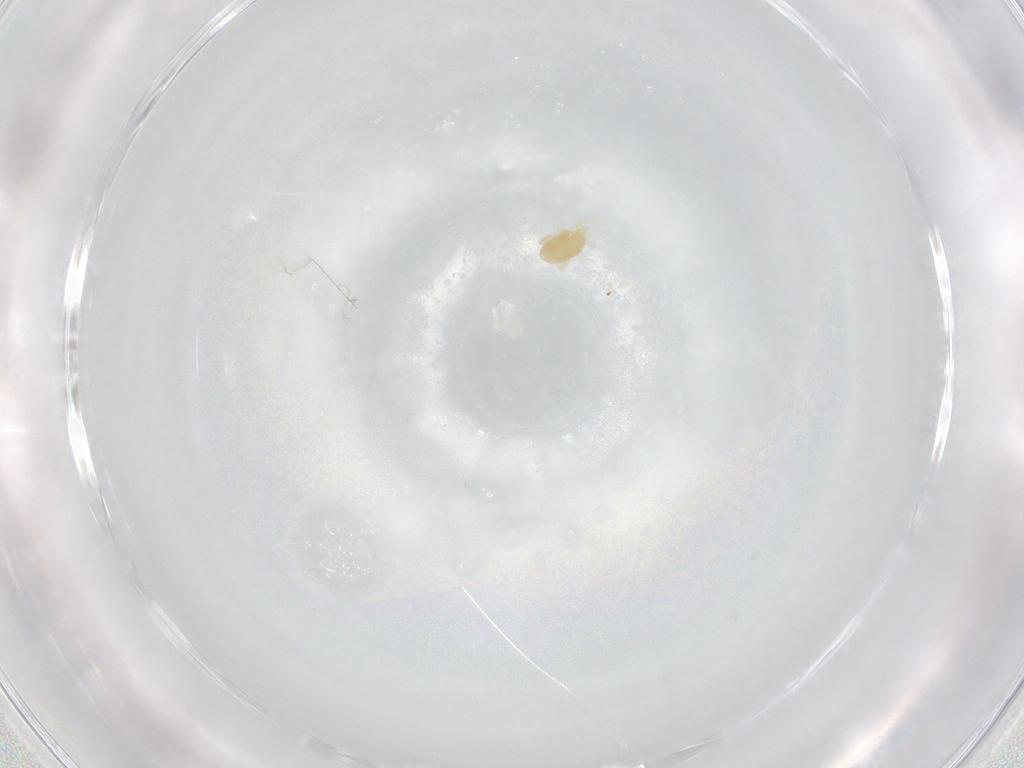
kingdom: Animalia
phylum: Arthropoda
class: Arachnida
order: Trombidiformes
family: Eupodidae
